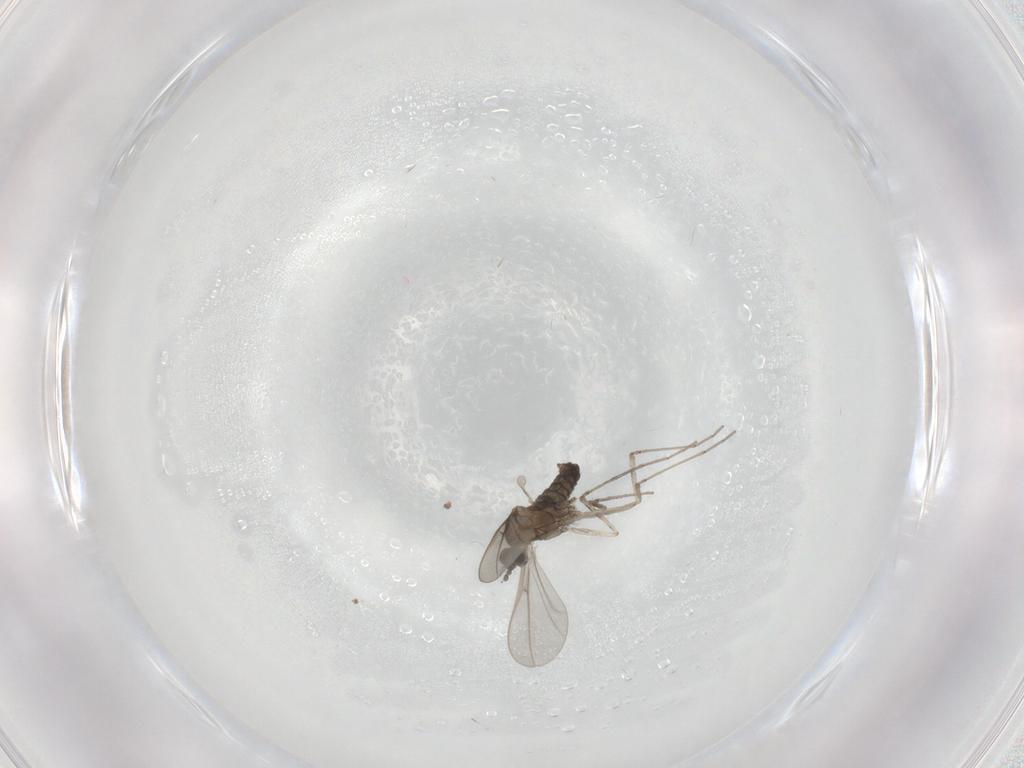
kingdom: Animalia
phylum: Arthropoda
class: Insecta
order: Diptera
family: Cecidomyiidae
